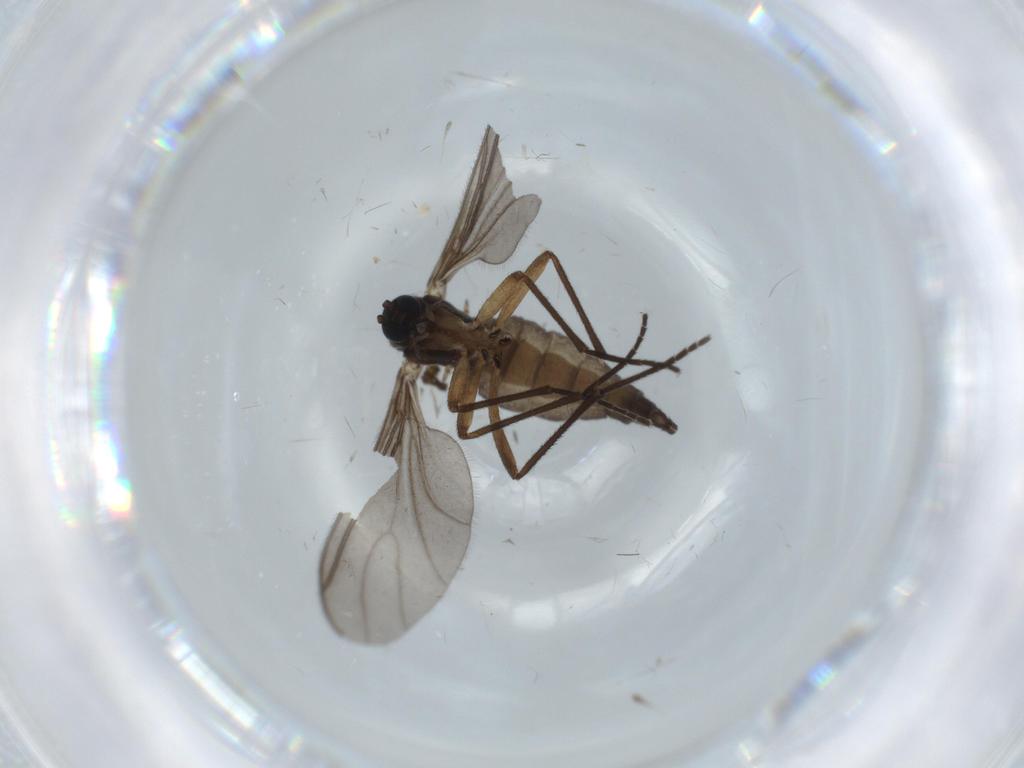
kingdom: Animalia
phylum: Arthropoda
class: Insecta
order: Diptera
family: Sciaridae
